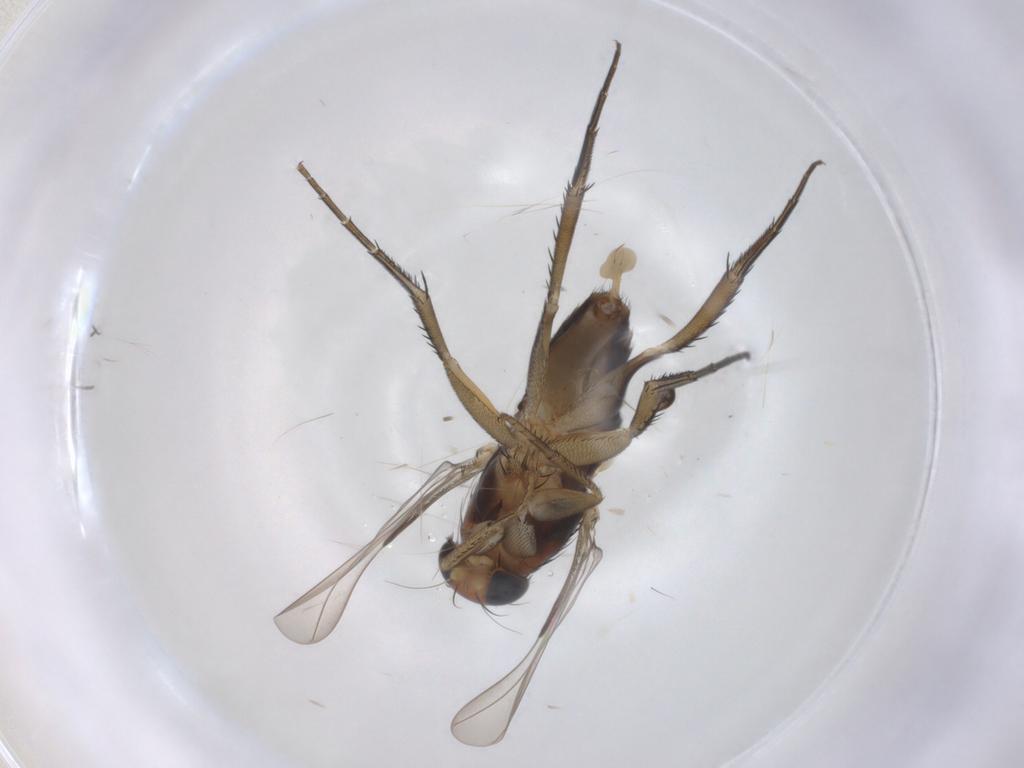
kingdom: Animalia
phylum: Arthropoda
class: Insecta
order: Diptera
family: Phoridae
